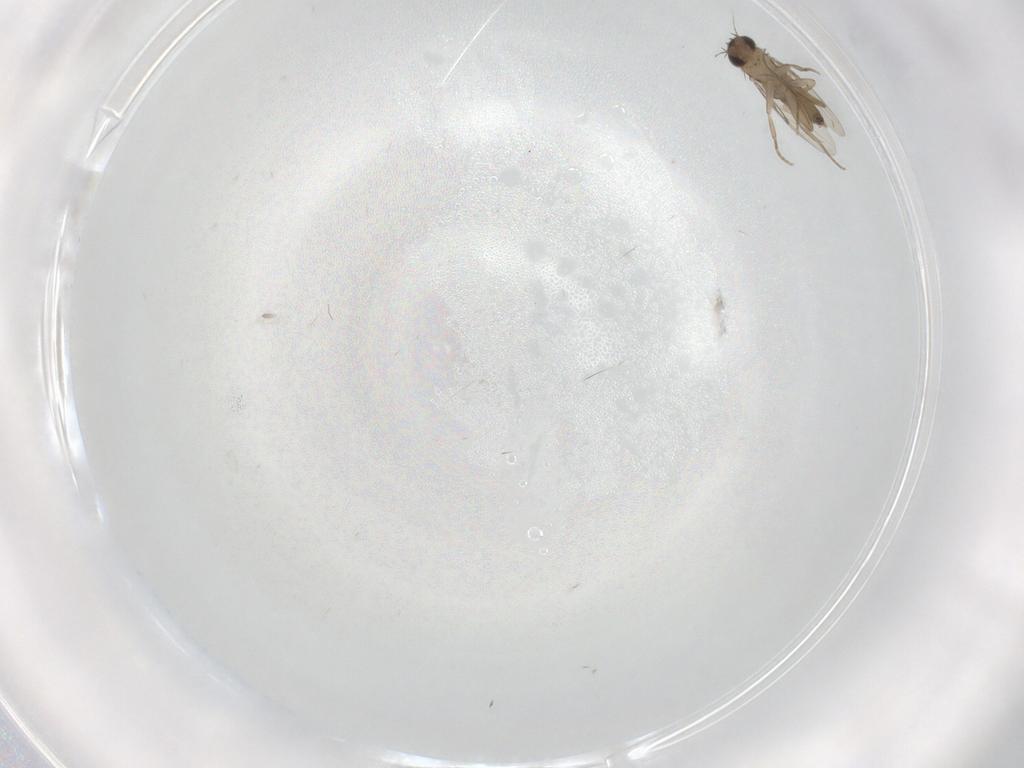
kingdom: Animalia
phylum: Arthropoda
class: Insecta
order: Diptera
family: Phoridae
